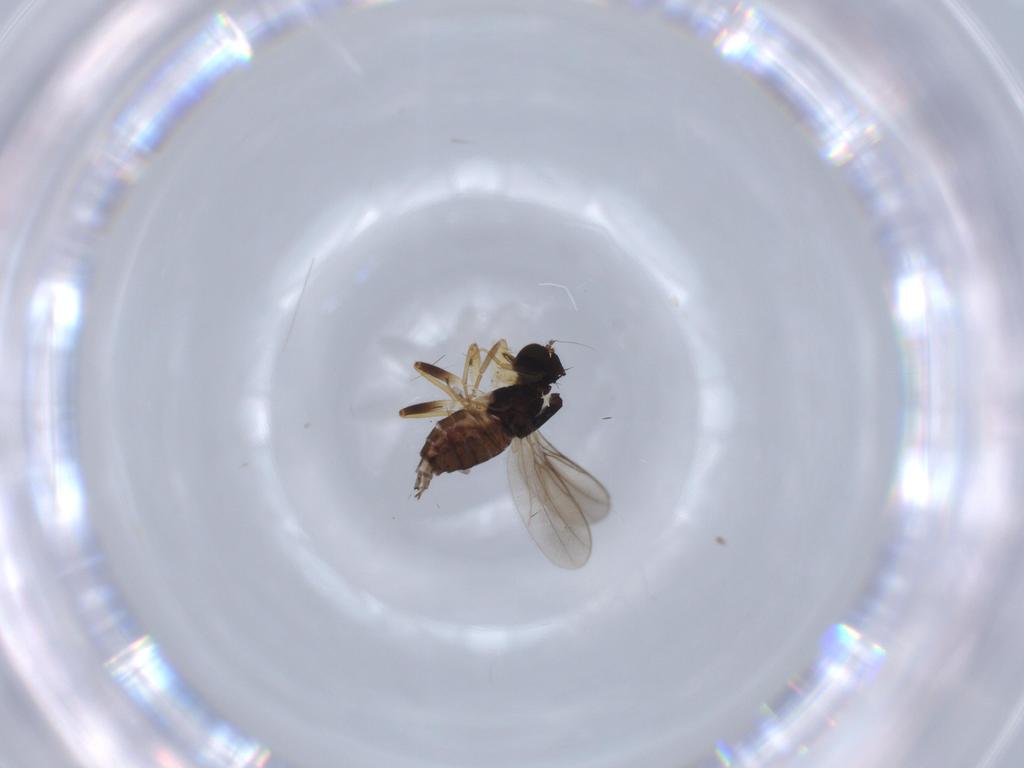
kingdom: Animalia
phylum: Arthropoda
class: Insecta
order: Diptera
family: Hybotidae
